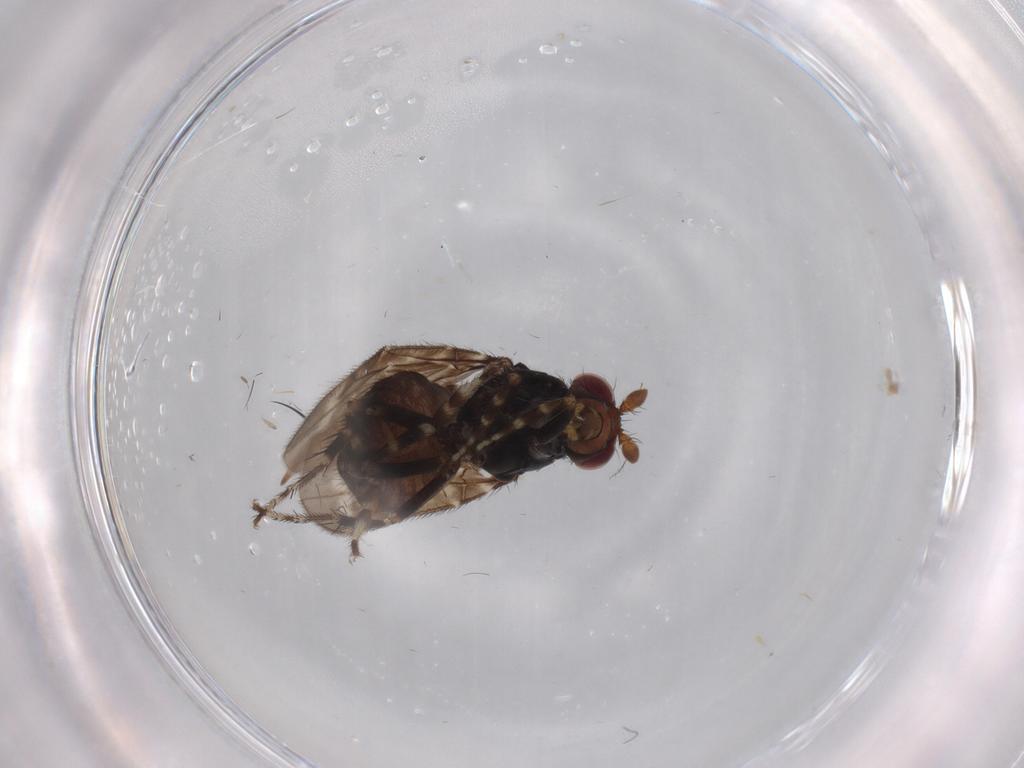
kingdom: Animalia
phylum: Arthropoda
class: Insecta
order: Diptera
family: Sphaeroceridae
